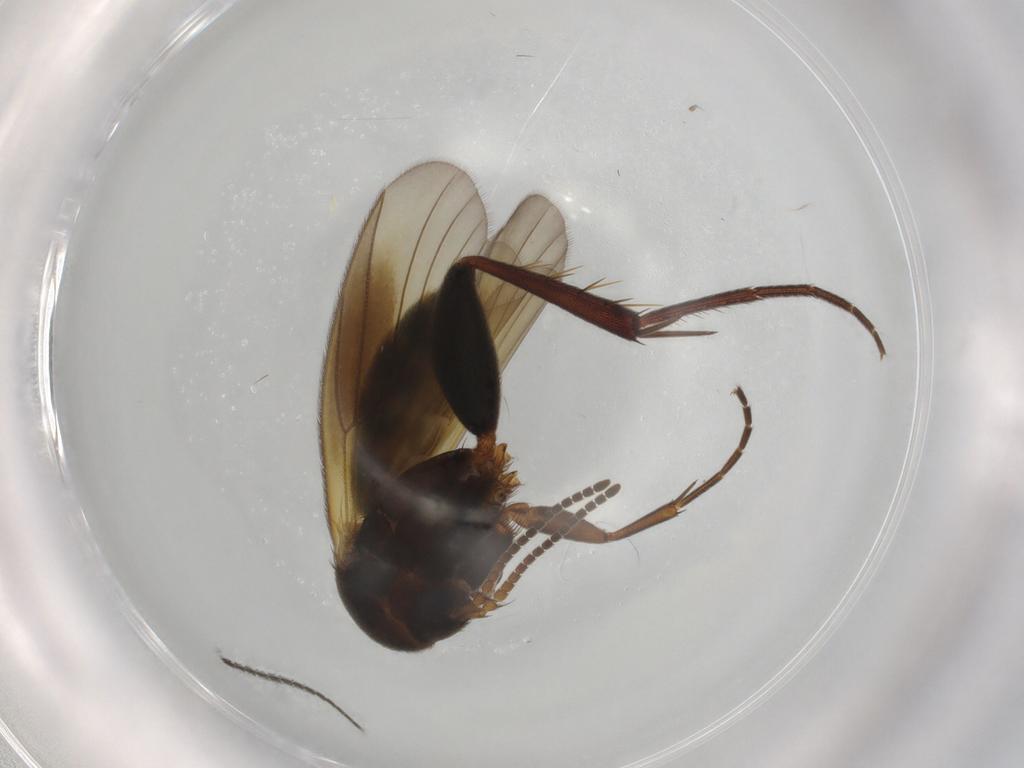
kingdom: Animalia
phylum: Arthropoda
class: Insecta
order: Diptera
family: Sciaridae
